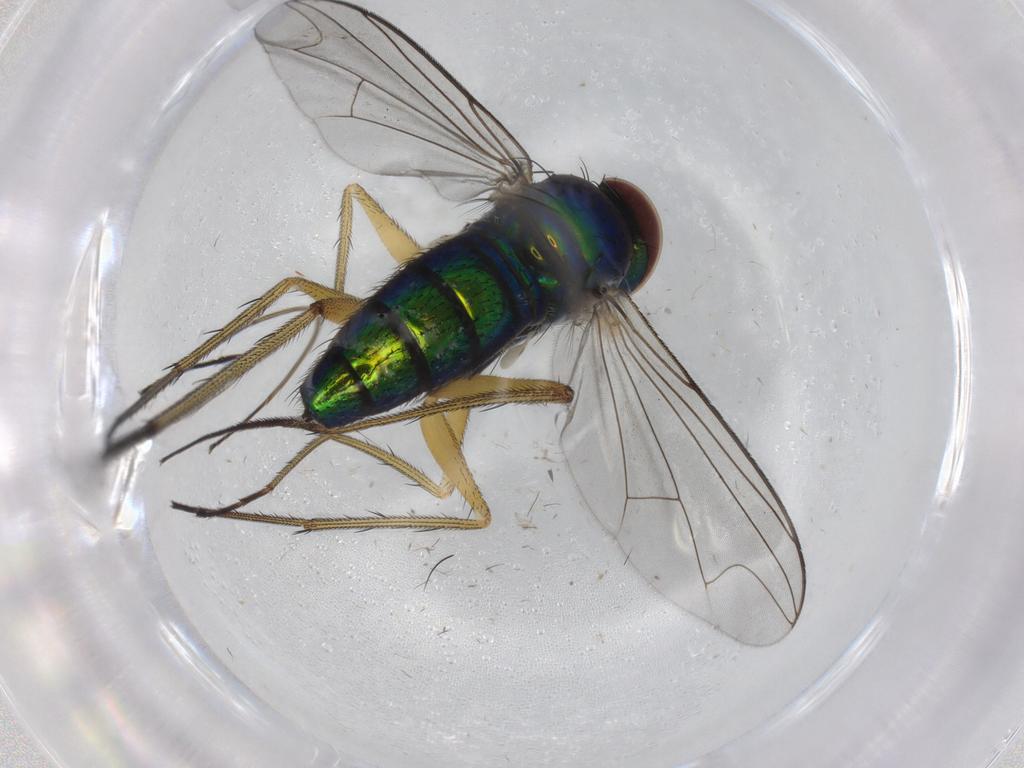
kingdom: Animalia
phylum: Arthropoda
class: Insecta
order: Diptera
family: Dolichopodidae
